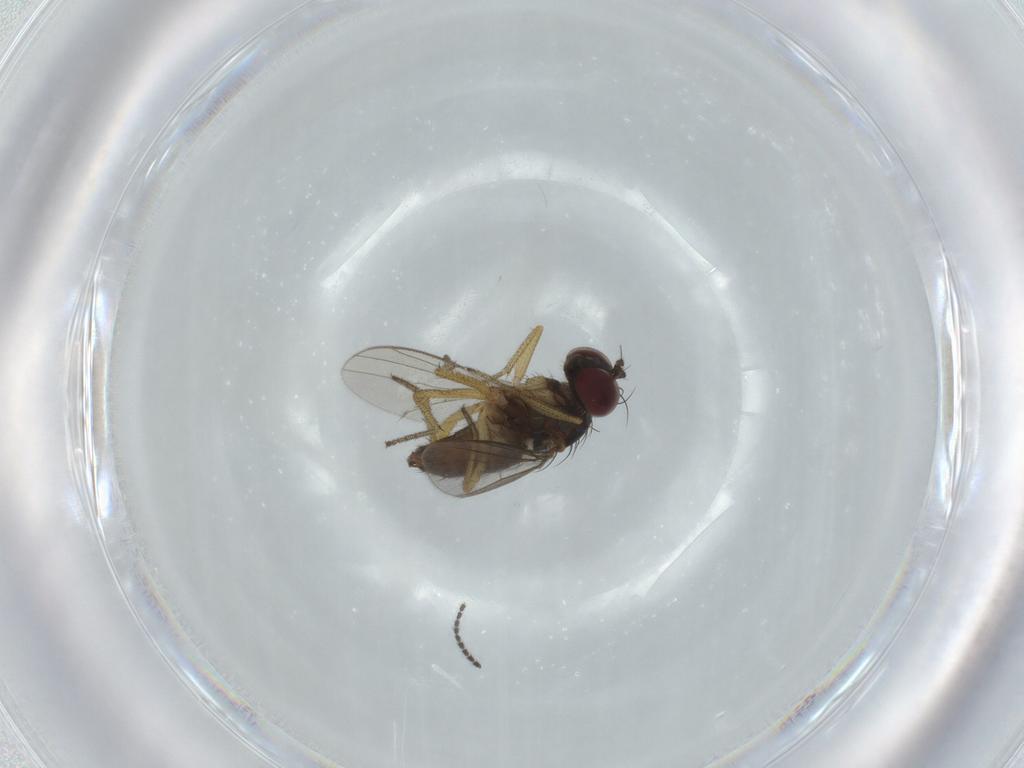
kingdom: Animalia
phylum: Arthropoda
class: Insecta
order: Diptera
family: Dolichopodidae
